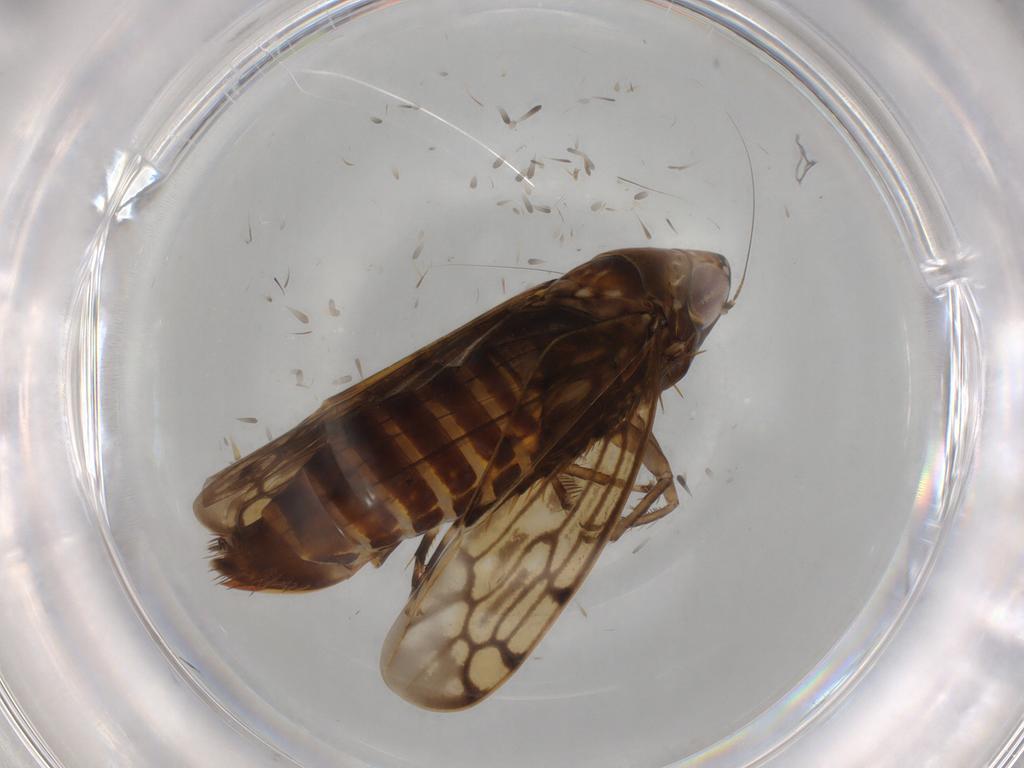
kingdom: Animalia
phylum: Arthropoda
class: Insecta
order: Hemiptera
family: Cicadellidae
